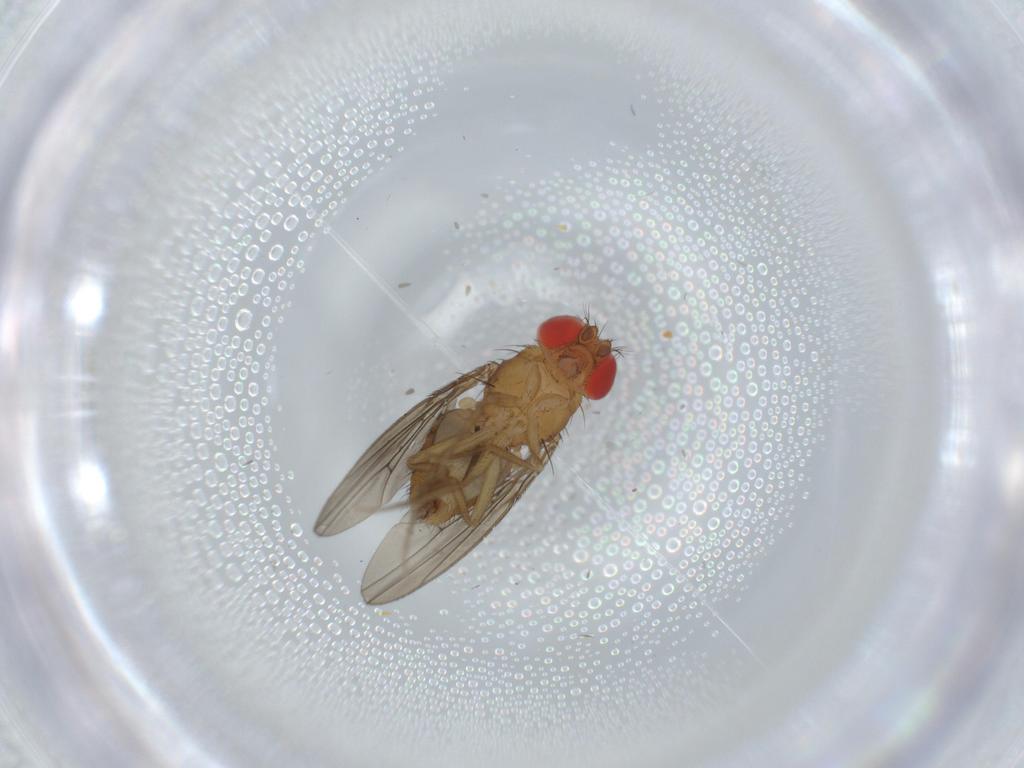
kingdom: Animalia
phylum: Arthropoda
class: Insecta
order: Diptera
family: Drosophilidae
